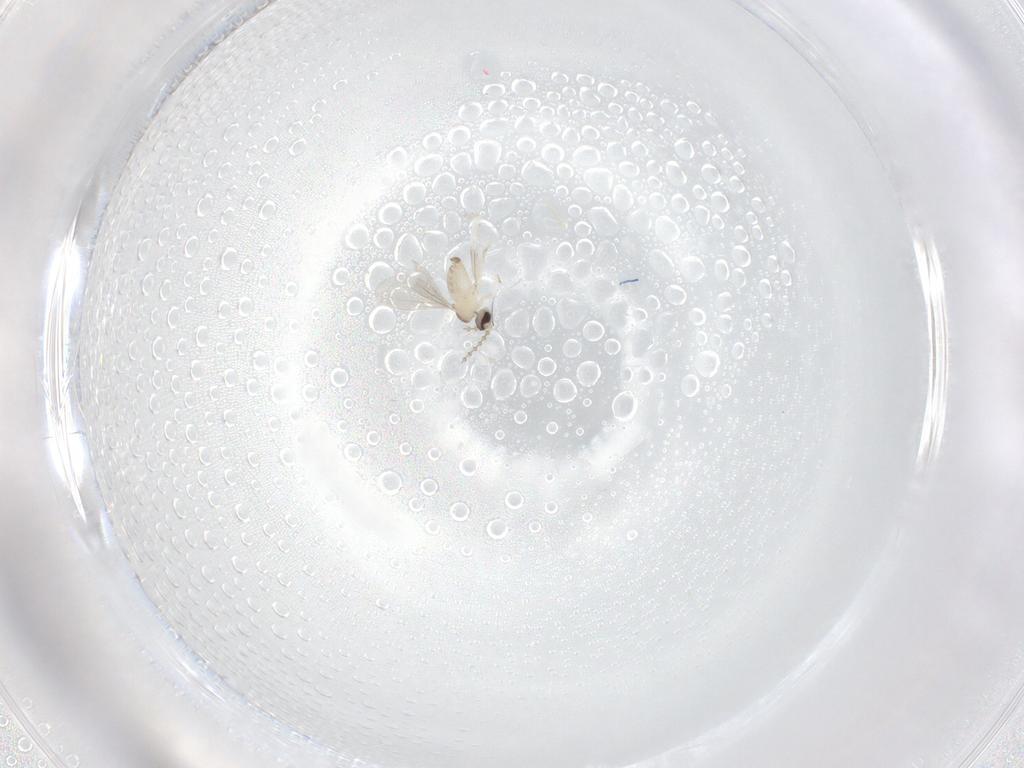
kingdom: Animalia
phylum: Arthropoda
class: Insecta
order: Diptera
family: Cecidomyiidae
